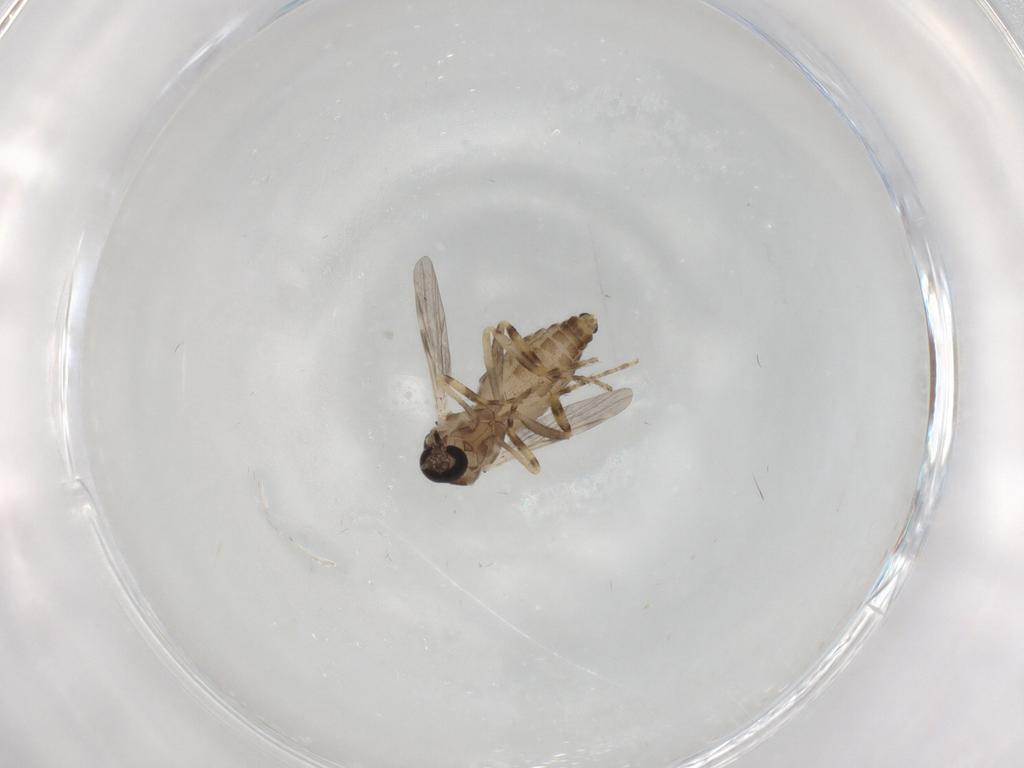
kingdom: Animalia
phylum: Arthropoda
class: Insecta
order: Diptera
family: Ceratopogonidae
